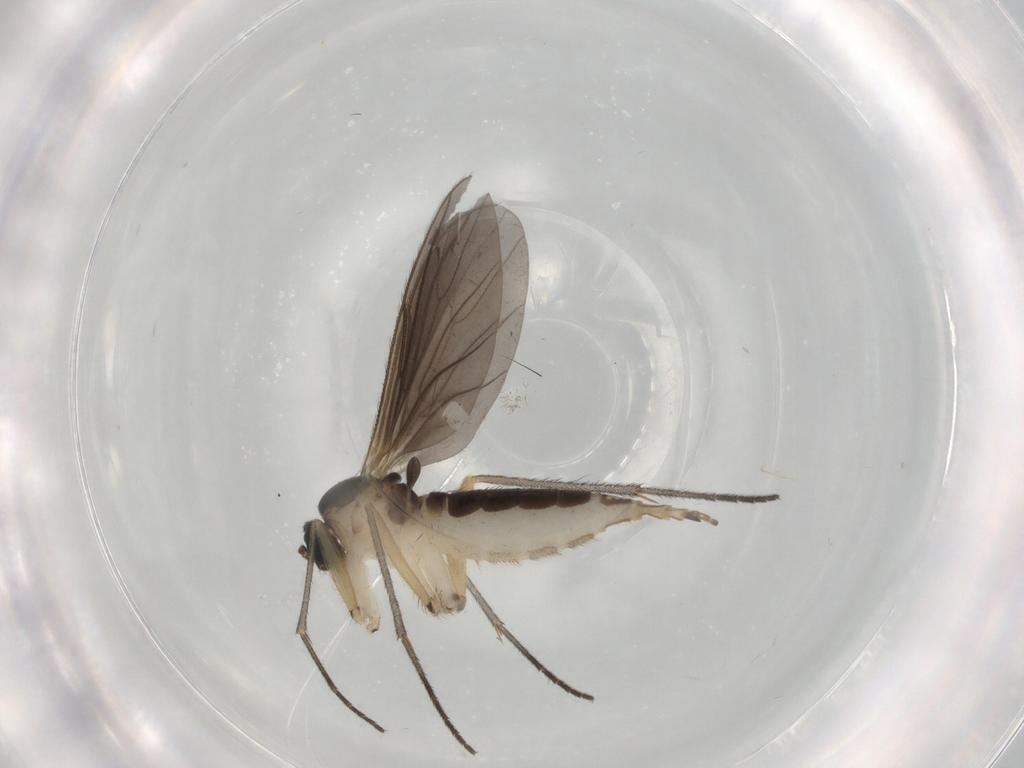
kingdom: Animalia
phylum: Arthropoda
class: Insecta
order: Diptera
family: Sciaridae
